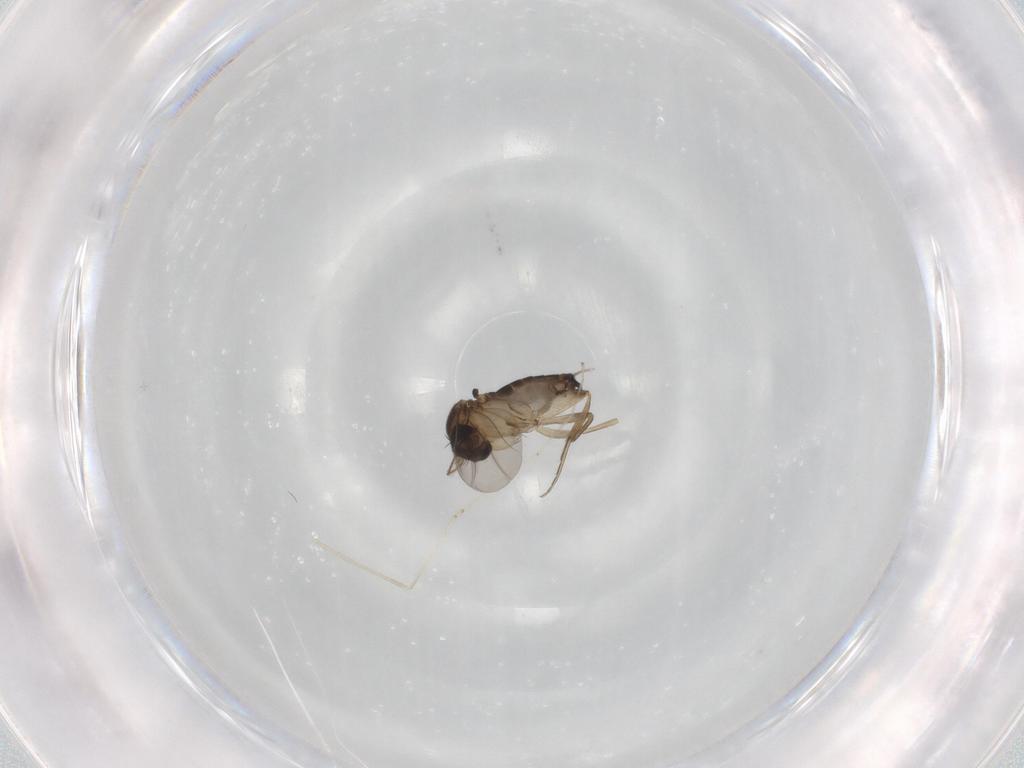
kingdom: Animalia
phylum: Arthropoda
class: Insecta
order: Diptera
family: Cecidomyiidae
